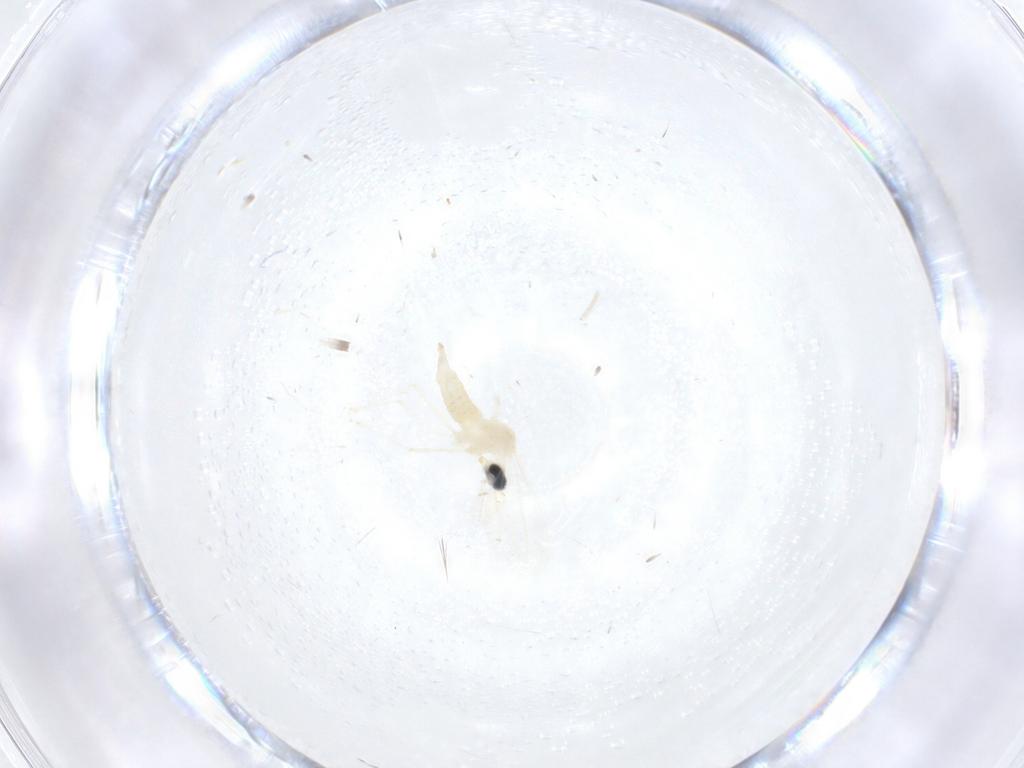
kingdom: Animalia
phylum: Arthropoda
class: Insecta
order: Diptera
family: Cecidomyiidae
